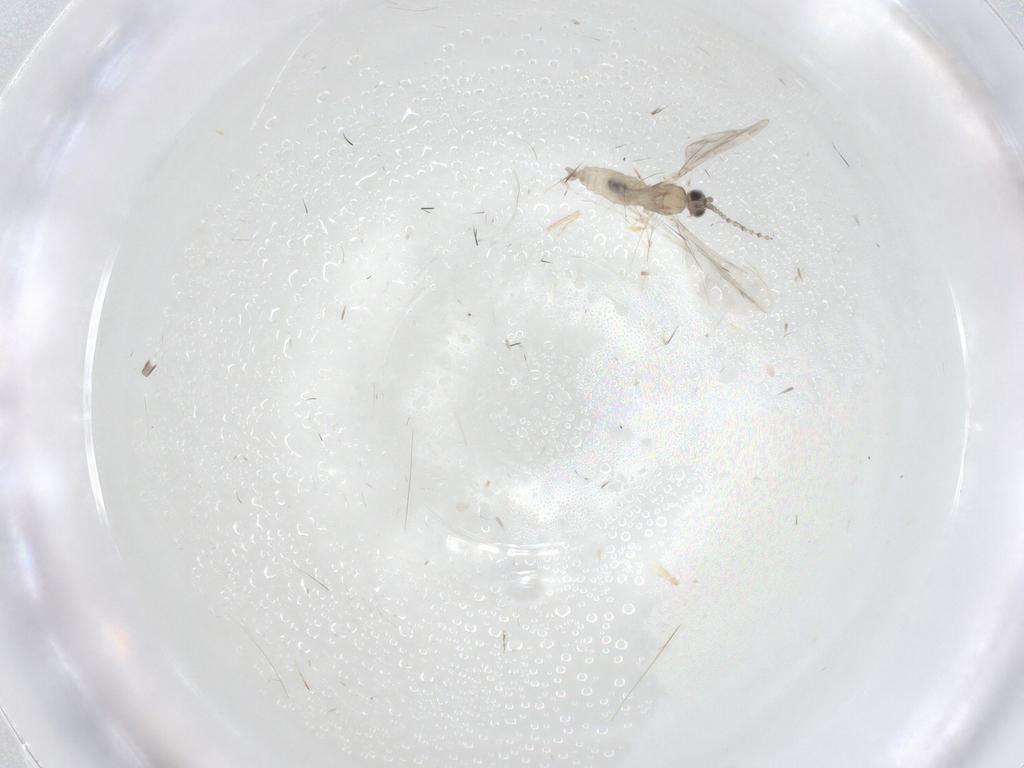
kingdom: Animalia
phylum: Arthropoda
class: Insecta
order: Diptera
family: Cecidomyiidae
